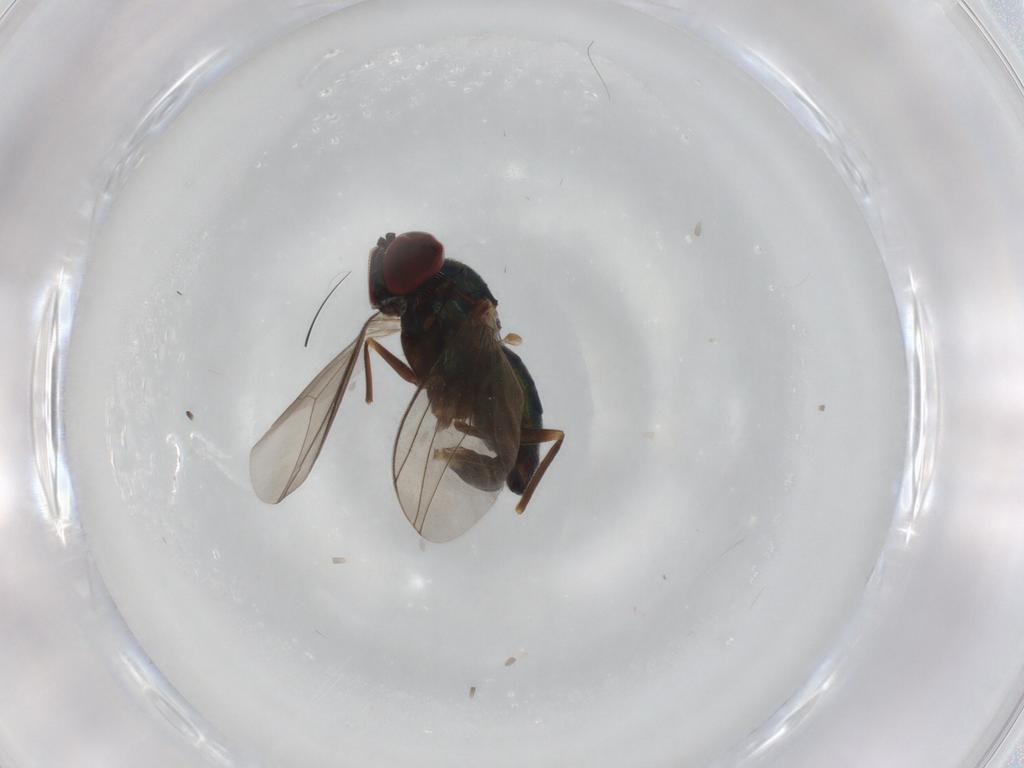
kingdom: Animalia
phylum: Arthropoda
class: Insecta
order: Diptera
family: Dolichopodidae
